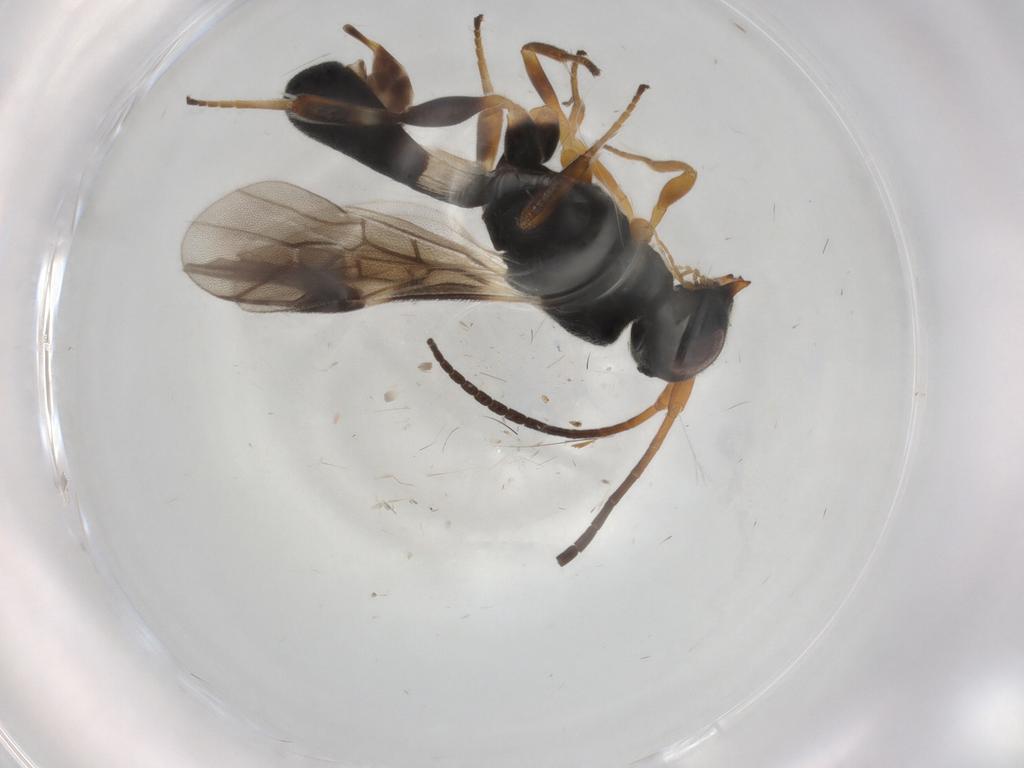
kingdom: Animalia
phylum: Arthropoda
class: Insecta
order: Hymenoptera
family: Braconidae
